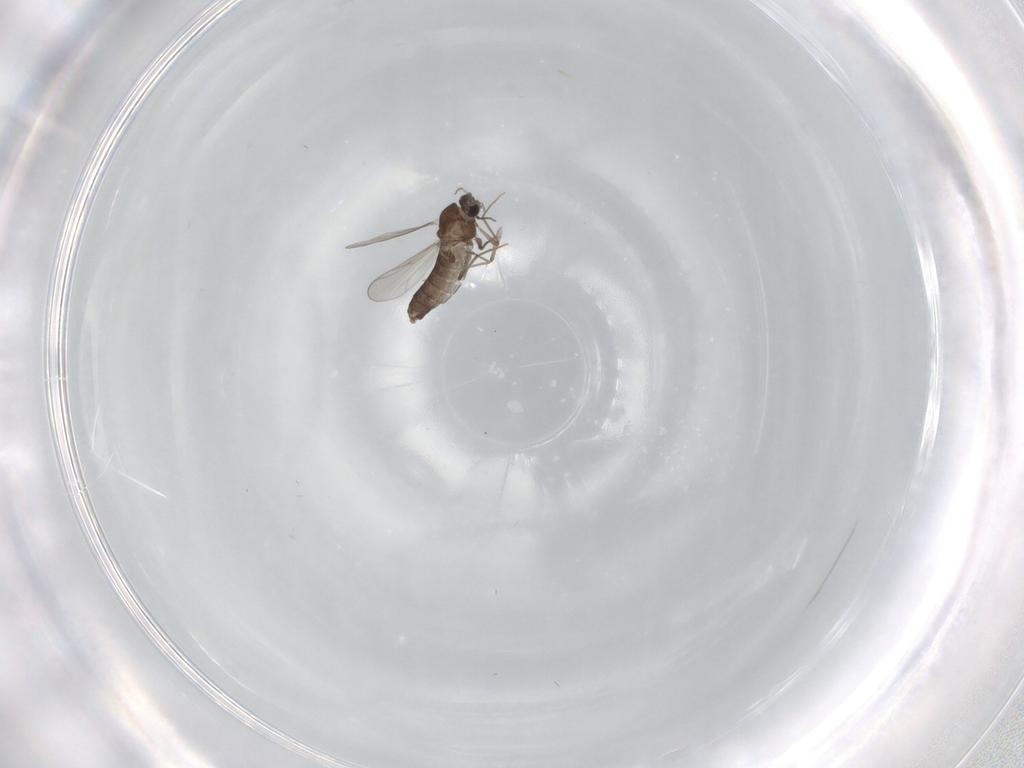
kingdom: Animalia
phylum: Arthropoda
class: Insecta
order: Diptera
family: Chironomidae
